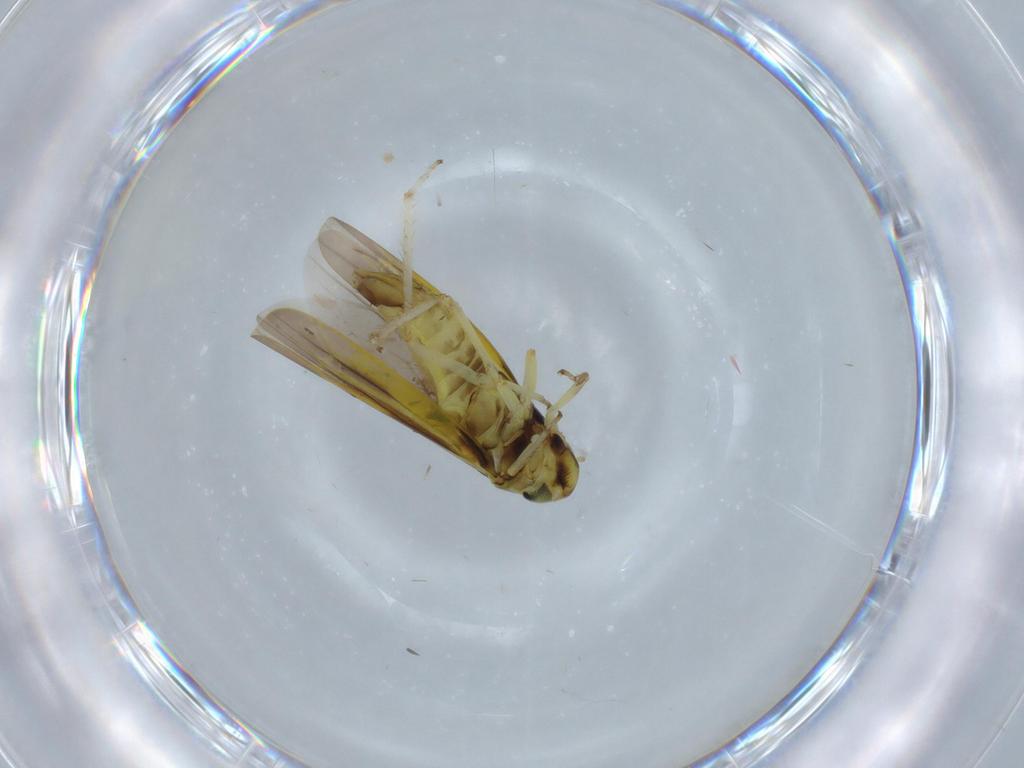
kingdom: Animalia
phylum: Arthropoda
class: Insecta
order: Hemiptera
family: Cicadellidae
